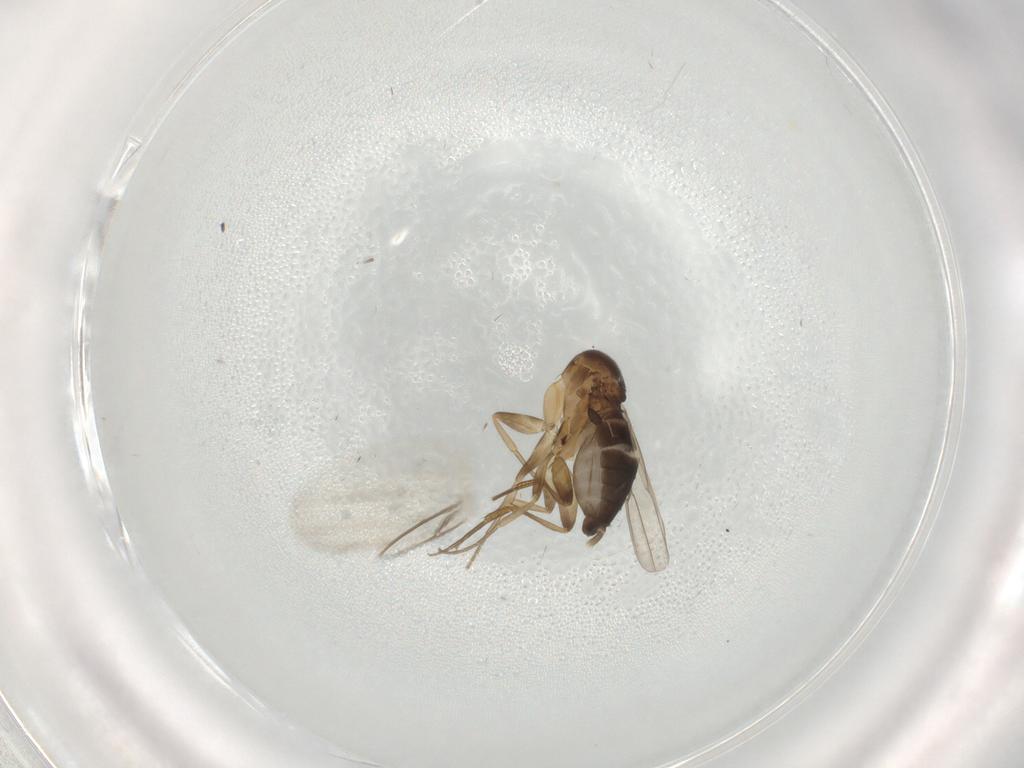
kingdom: Animalia
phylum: Arthropoda
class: Insecta
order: Diptera
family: Phoridae
